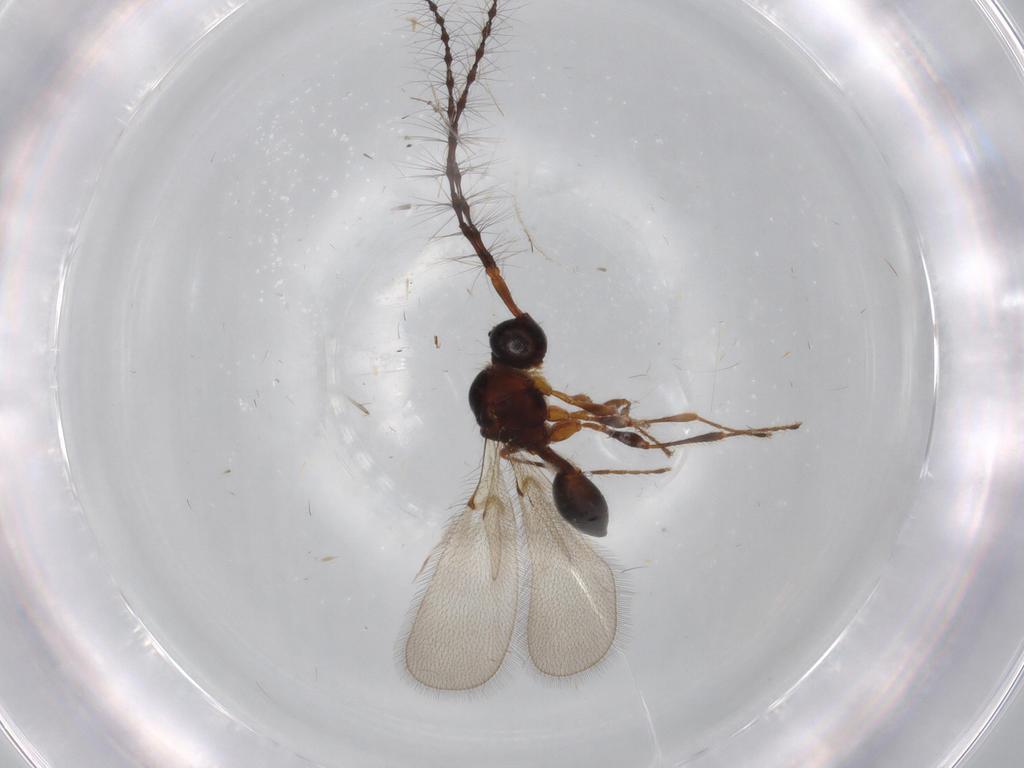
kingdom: Animalia
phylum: Arthropoda
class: Insecta
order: Hymenoptera
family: Diapriidae
